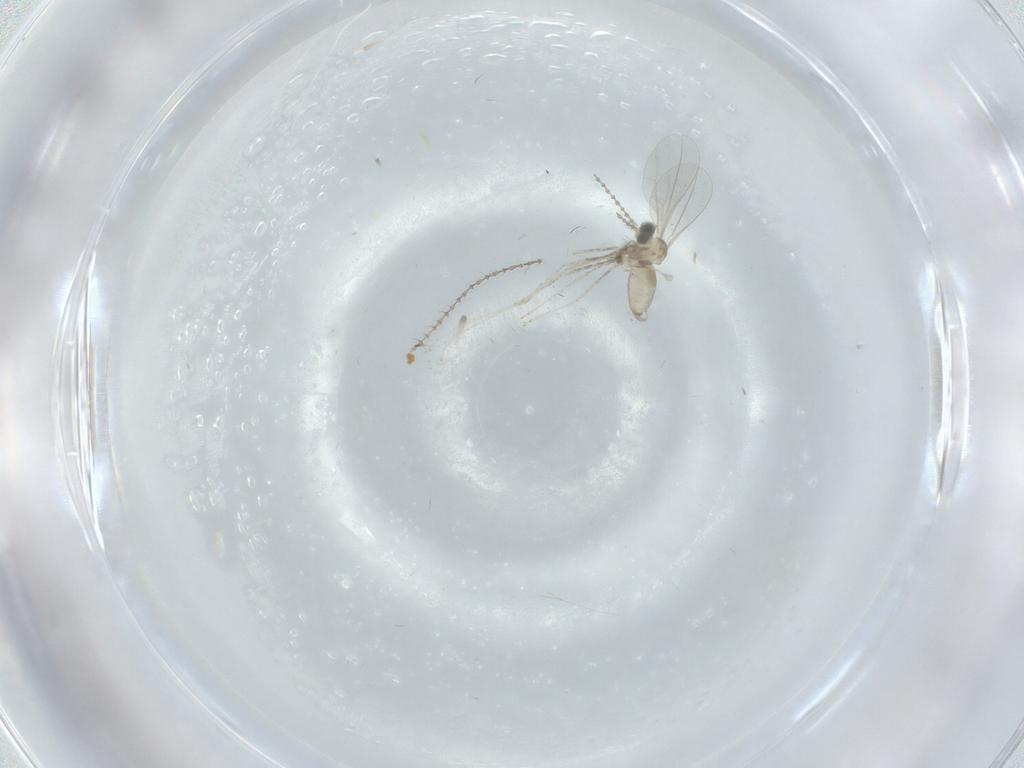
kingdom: Animalia
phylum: Arthropoda
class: Insecta
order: Diptera
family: Cecidomyiidae
